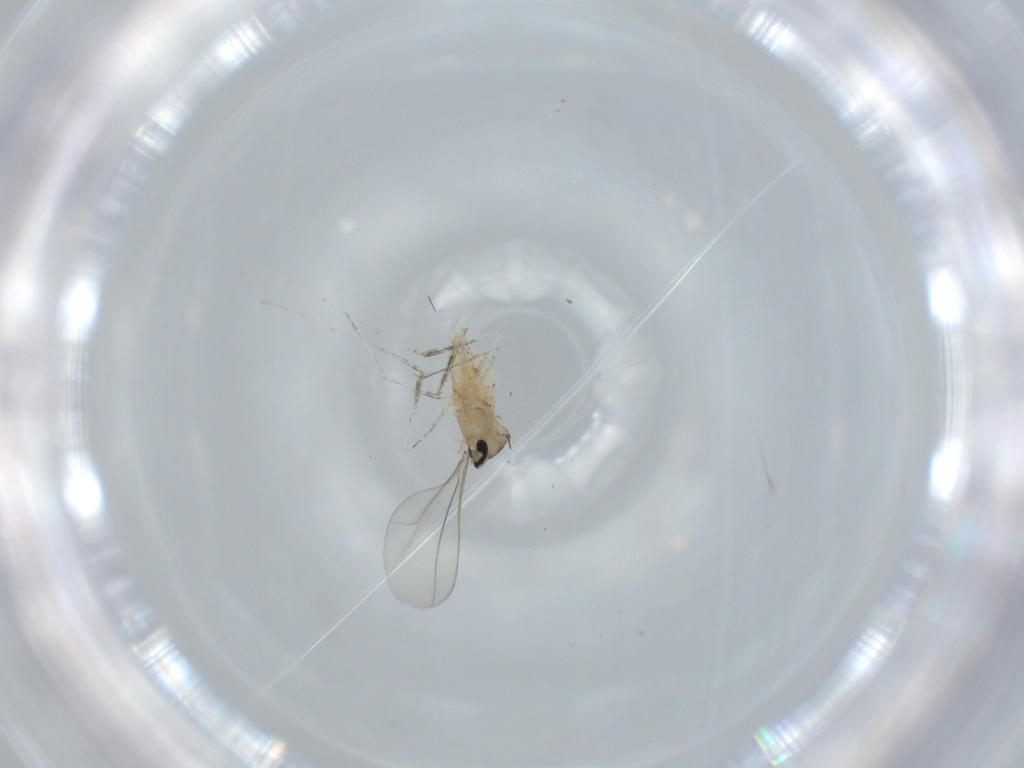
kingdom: Animalia
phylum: Arthropoda
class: Insecta
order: Diptera
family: Cecidomyiidae
